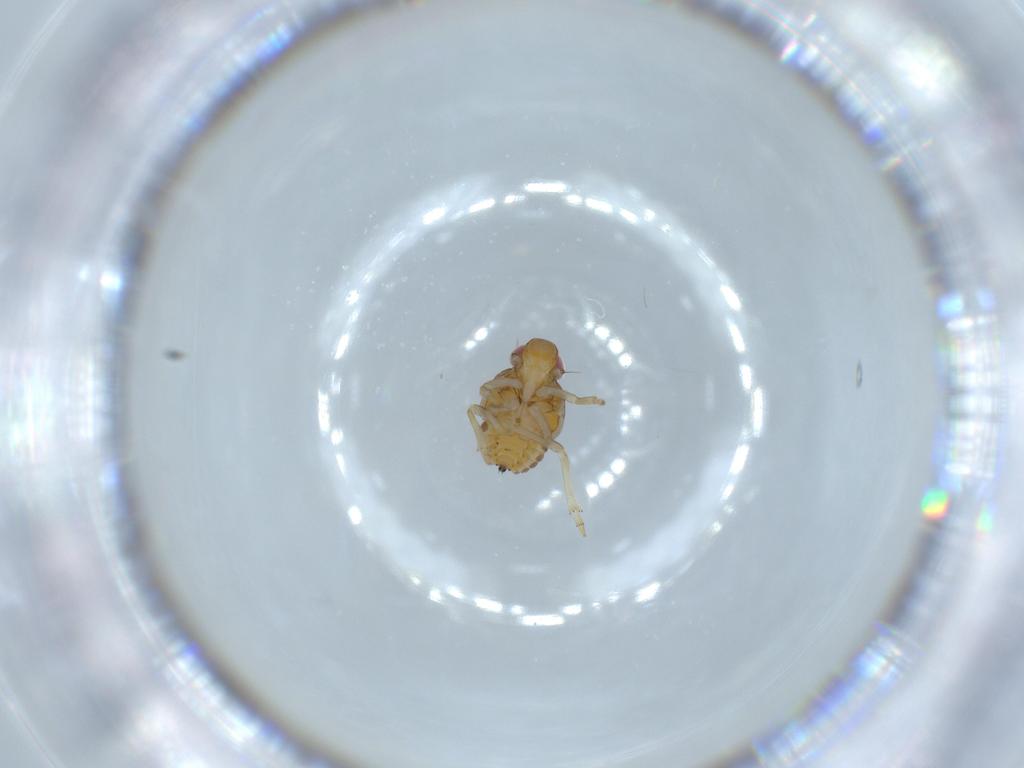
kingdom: Animalia
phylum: Arthropoda
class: Insecta
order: Hemiptera
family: Issidae
